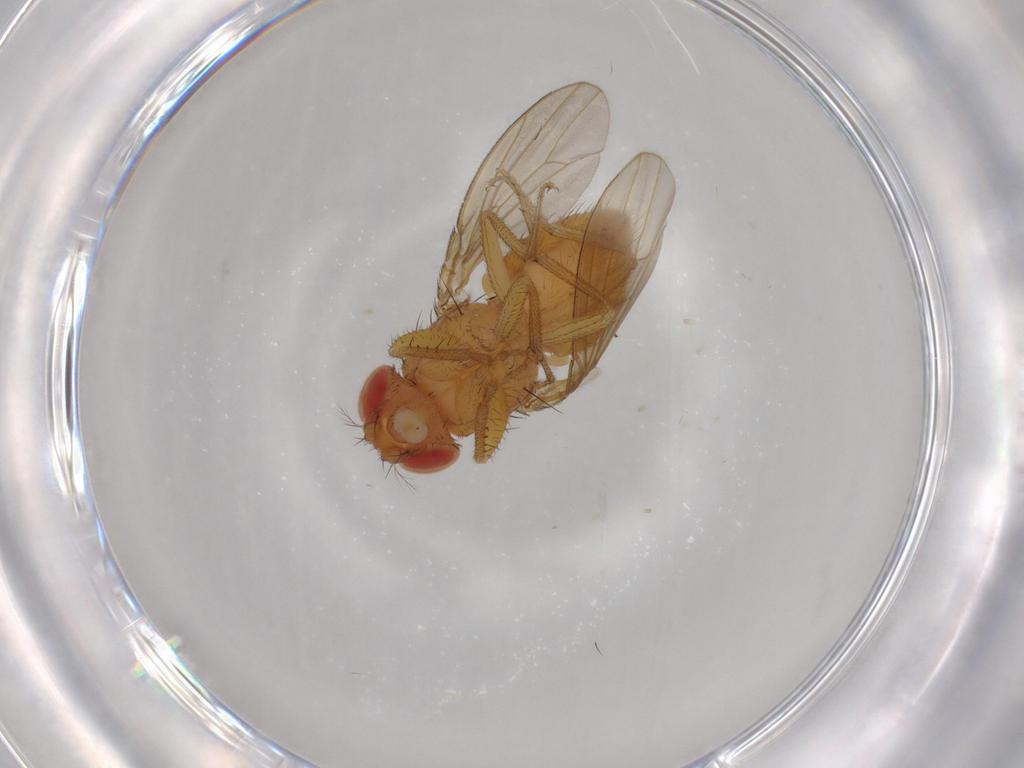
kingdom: Animalia
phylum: Arthropoda
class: Insecta
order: Diptera
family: Drosophilidae
